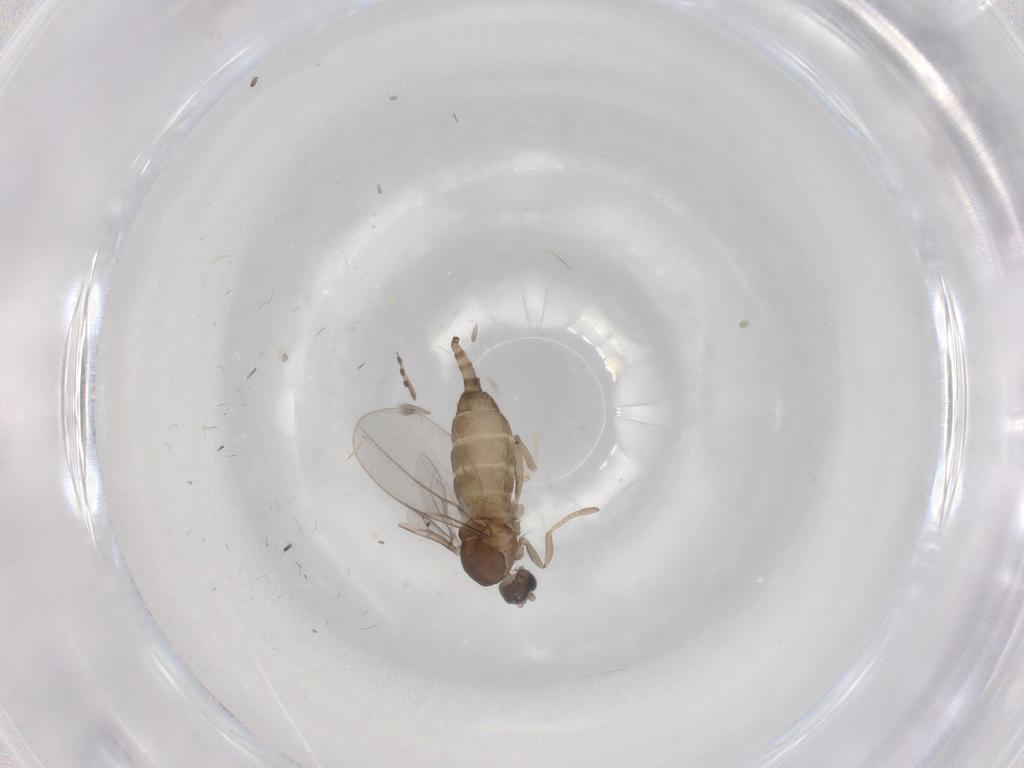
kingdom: Animalia
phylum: Arthropoda
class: Insecta
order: Diptera
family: Cecidomyiidae
